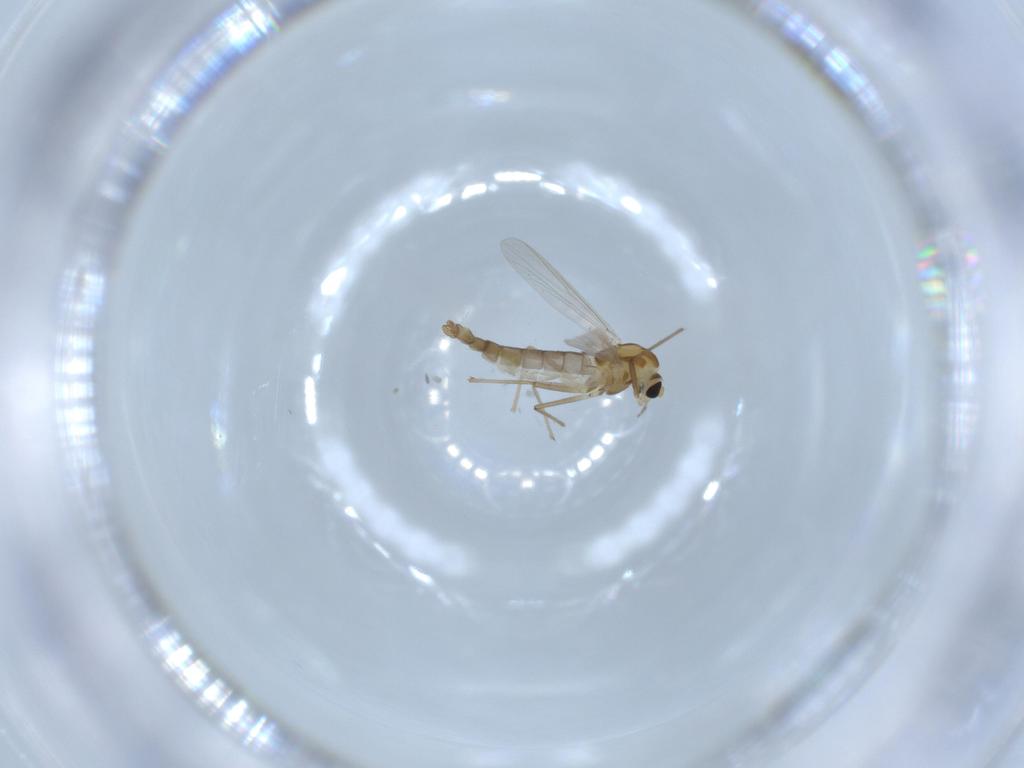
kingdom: Animalia
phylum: Arthropoda
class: Insecta
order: Diptera
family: Chironomidae
